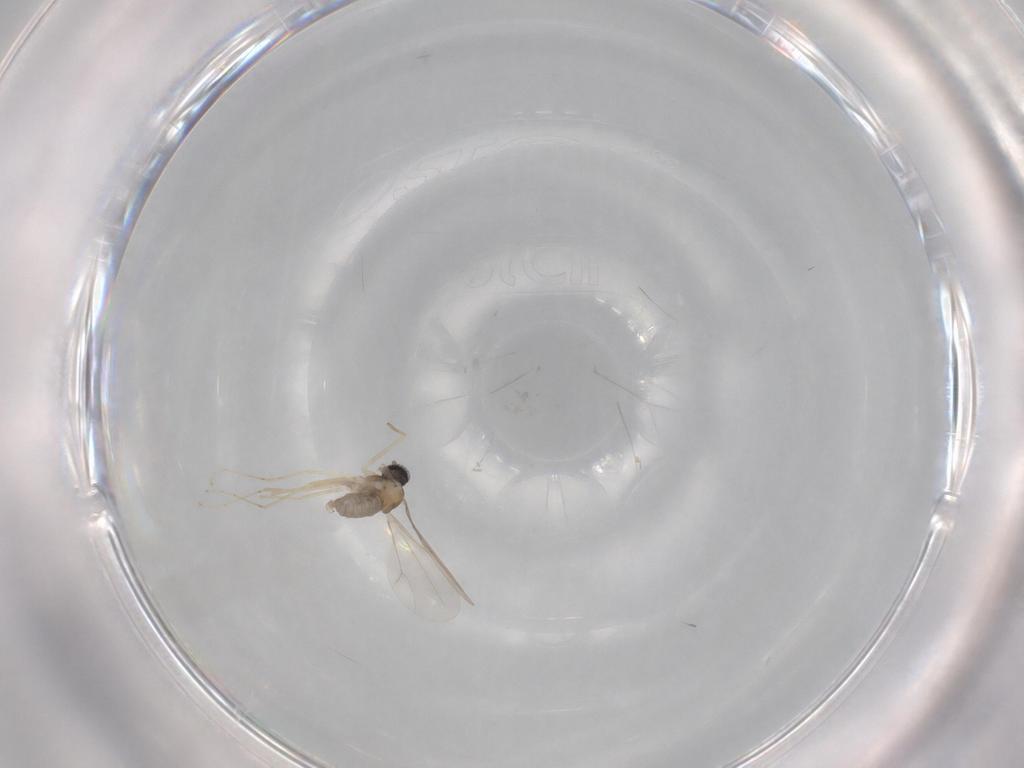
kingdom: Animalia
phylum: Arthropoda
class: Insecta
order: Diptera
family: Cecidomyiidae
